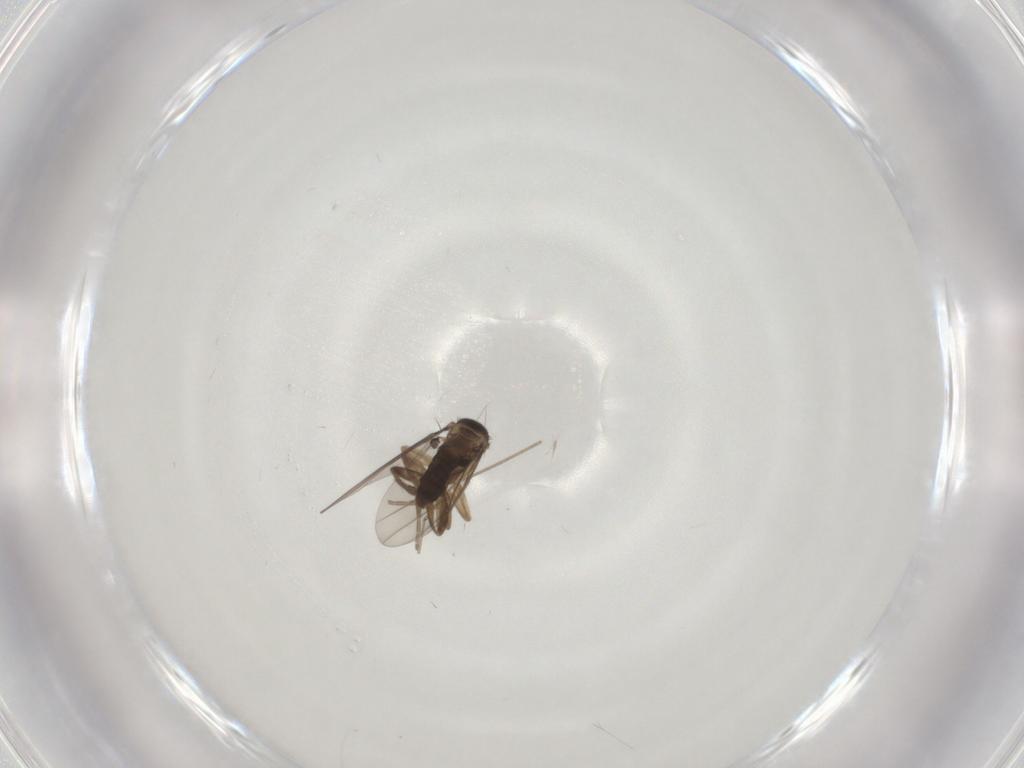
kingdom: Animalia
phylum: Arthropoda
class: Insecta
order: Diptera
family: Cecidomyiidae
